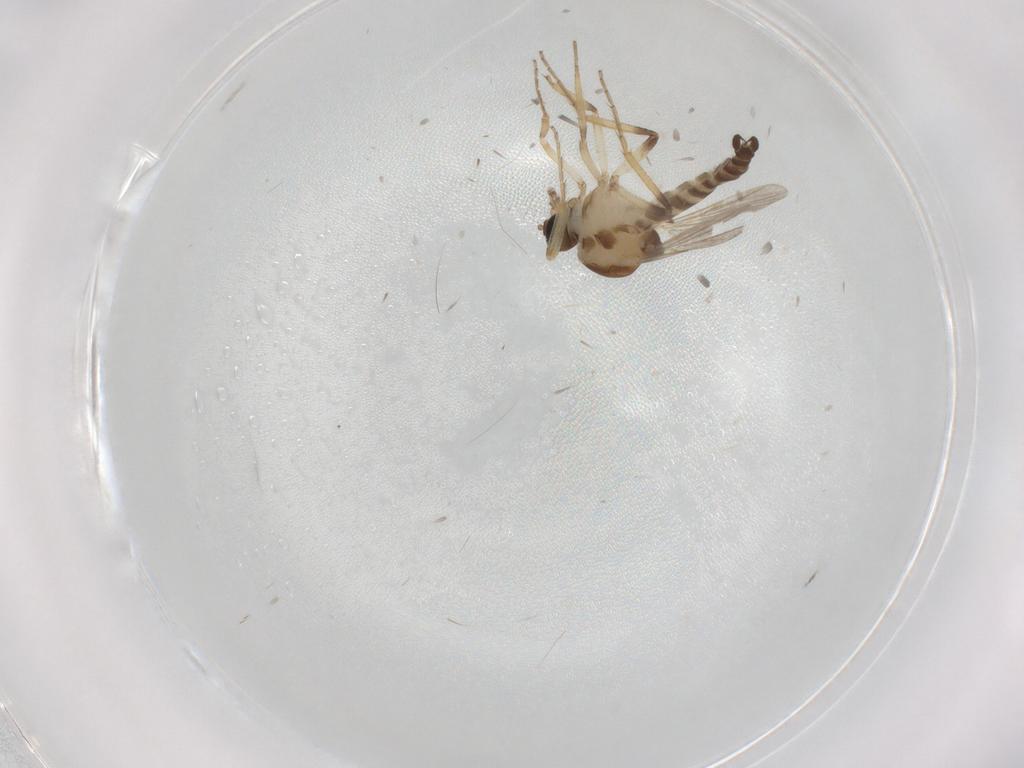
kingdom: Animalia
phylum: Arthropoda
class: Insecta
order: Diptera
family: Ceratopogonidae
